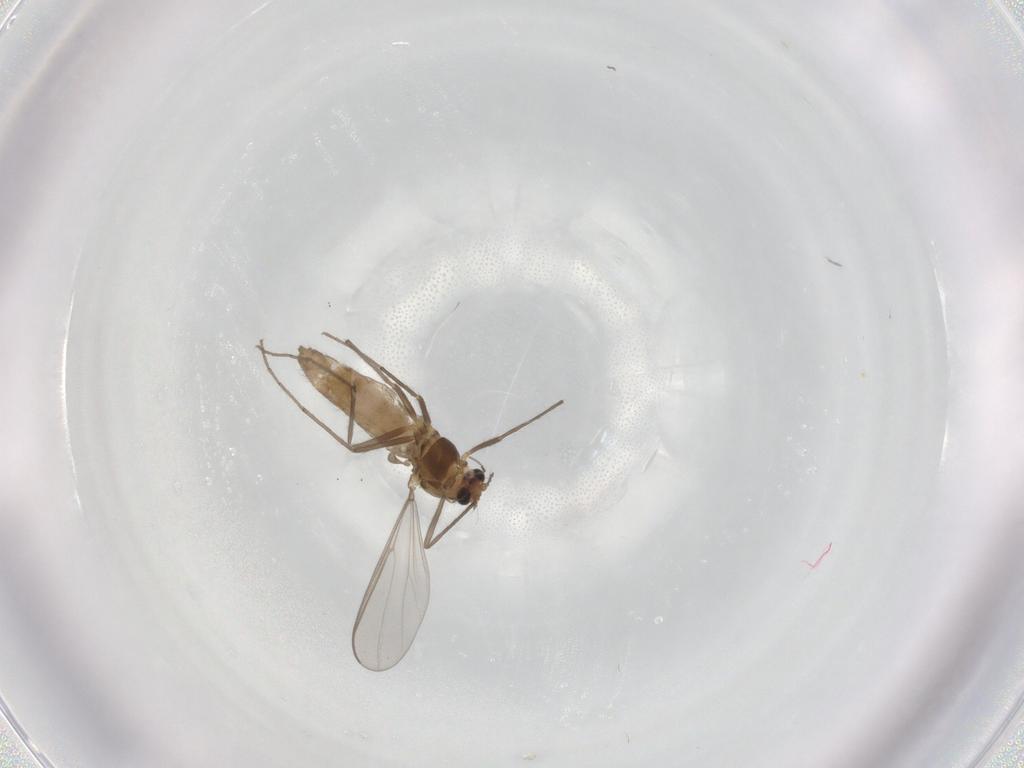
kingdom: Animalia
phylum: Arthropoda
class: Insecta
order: Diptera
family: Chironomidae
